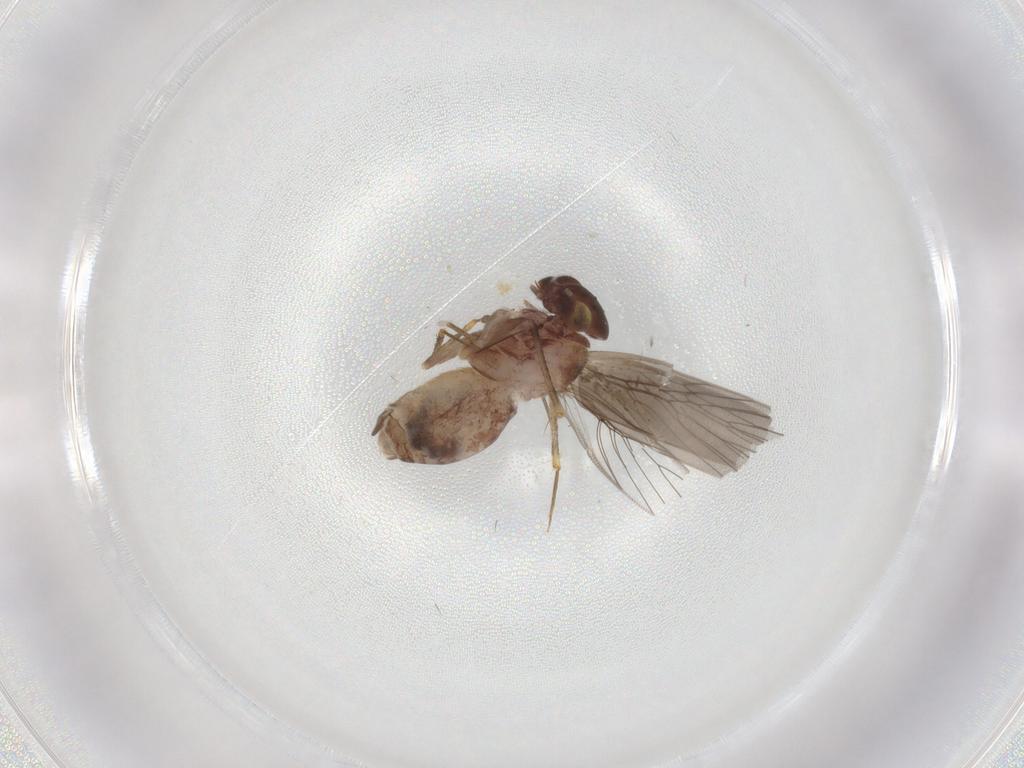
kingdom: Animalia
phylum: Arthropoda
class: Insecta
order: Psocodea
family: Lepidopsocidae
